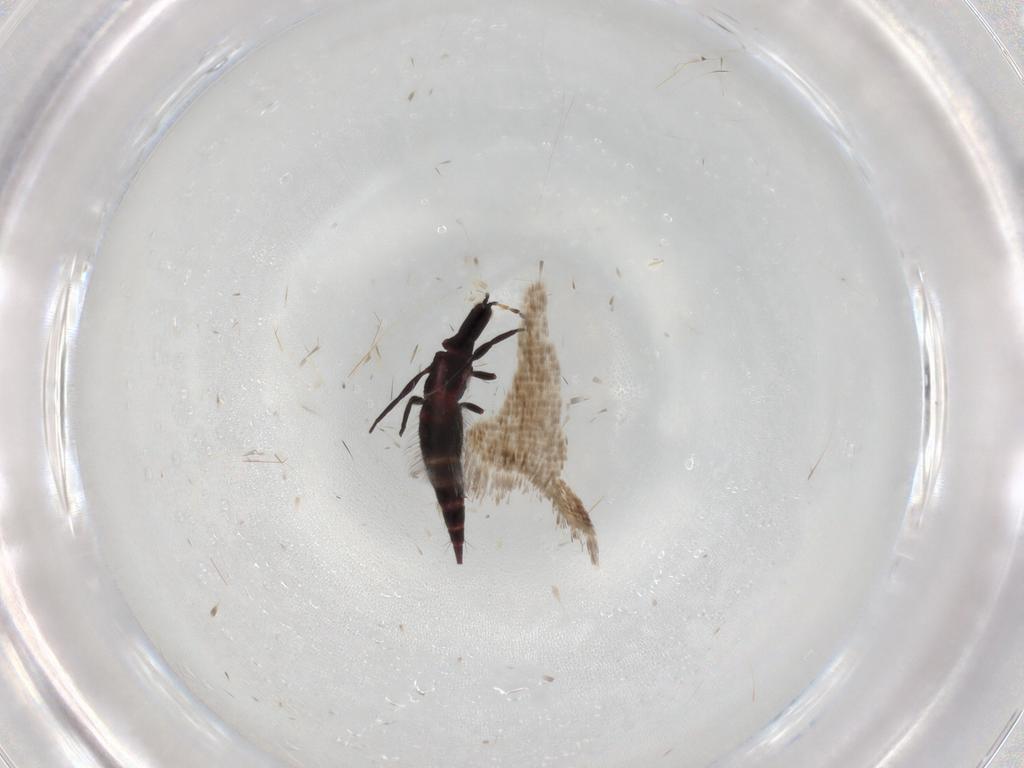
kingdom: Animalia
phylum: Arthropoda
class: Insecta
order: Thysanoptera
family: Phlaeothripidae
